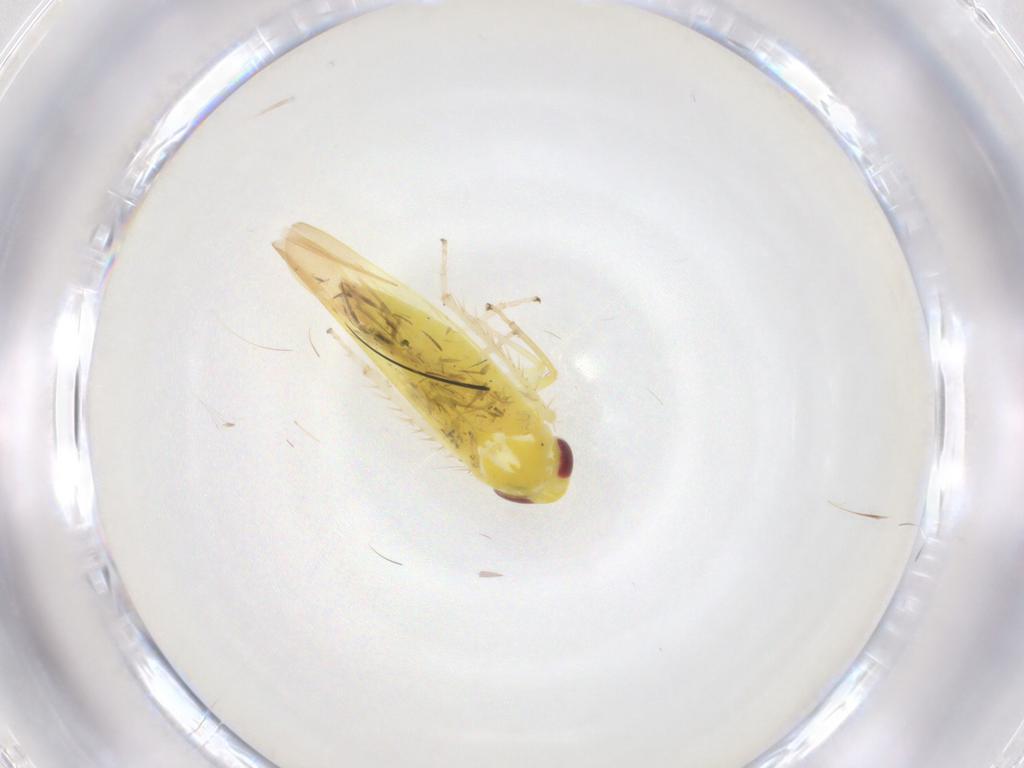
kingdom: Animalia
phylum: Arthropoda
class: Insecta
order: Hemiptera
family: Cicadellidae
